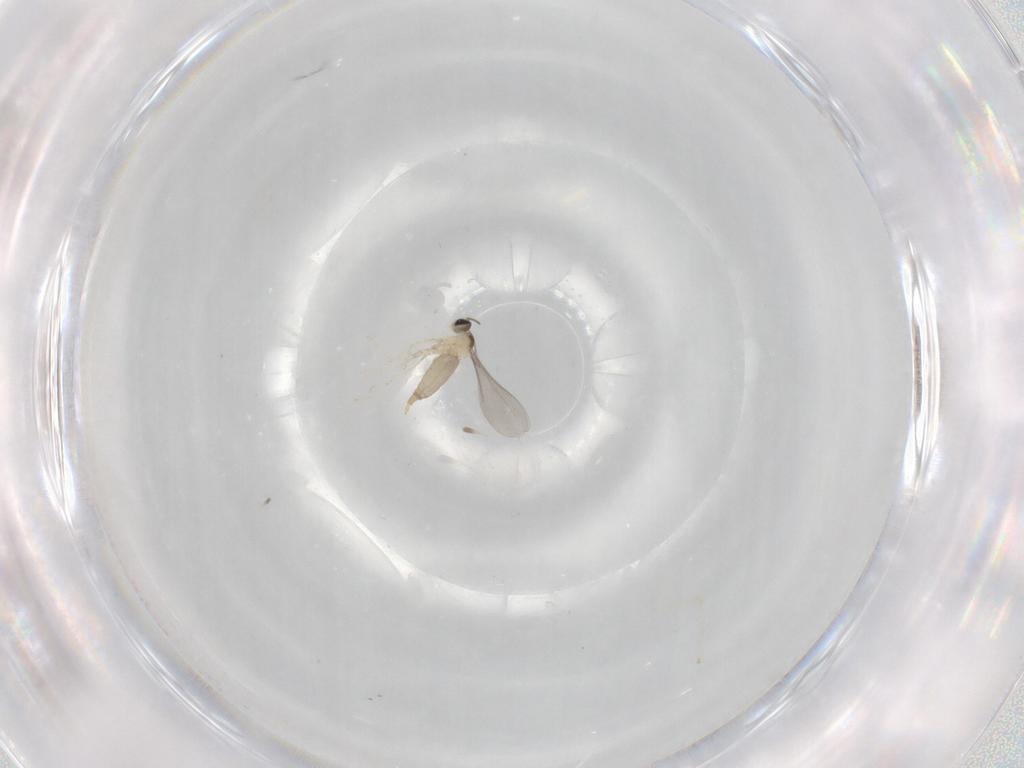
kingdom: Animalia
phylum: Arthropoda
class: Insecta
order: Diptera
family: Cecidomyiidae
